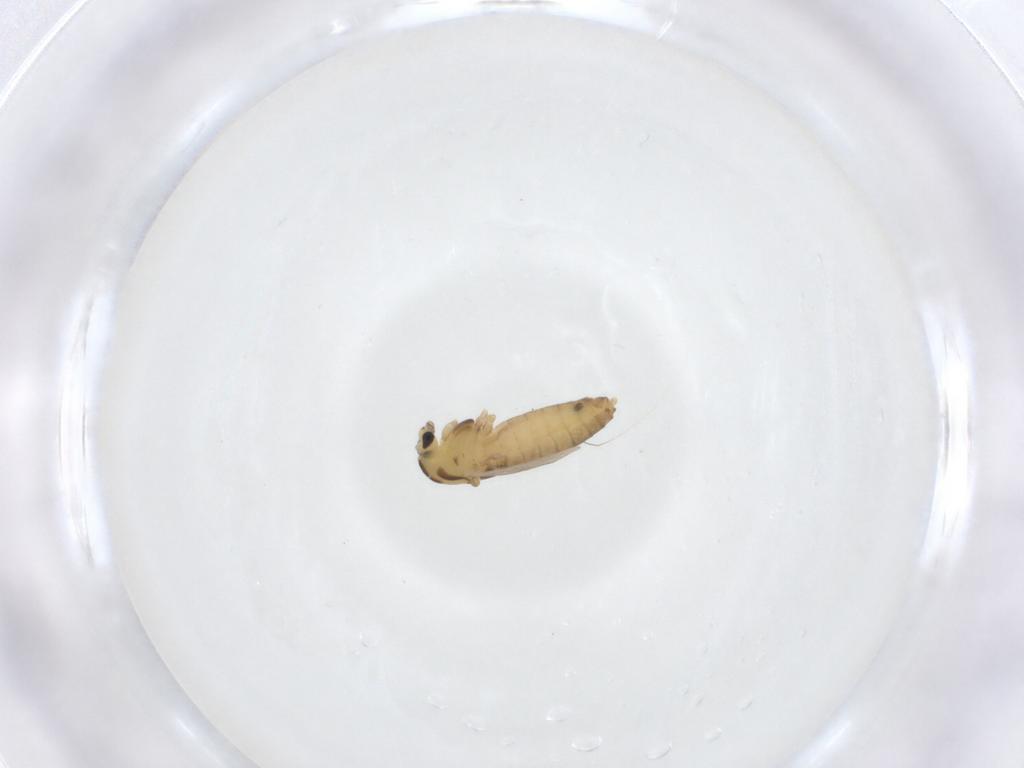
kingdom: Animalia
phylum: Arthropoda
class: Insecta
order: Diptera
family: Chironomidae
